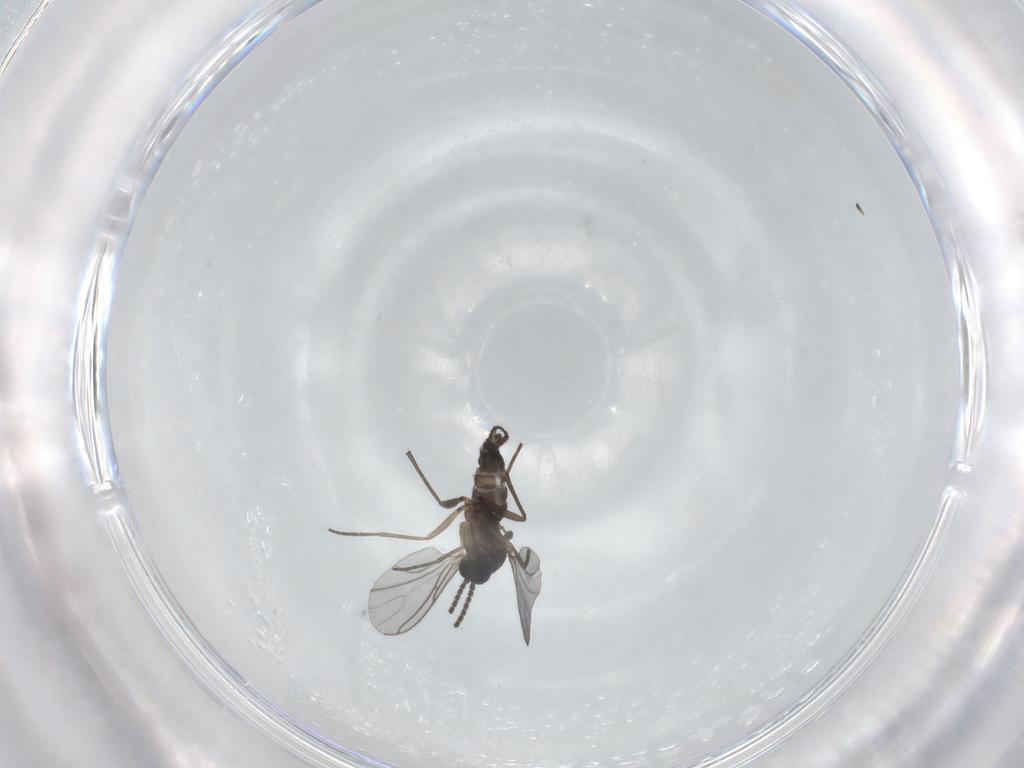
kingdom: Animalia
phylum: Arthropoda
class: Insecta
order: Diptera
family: Sciaridae
